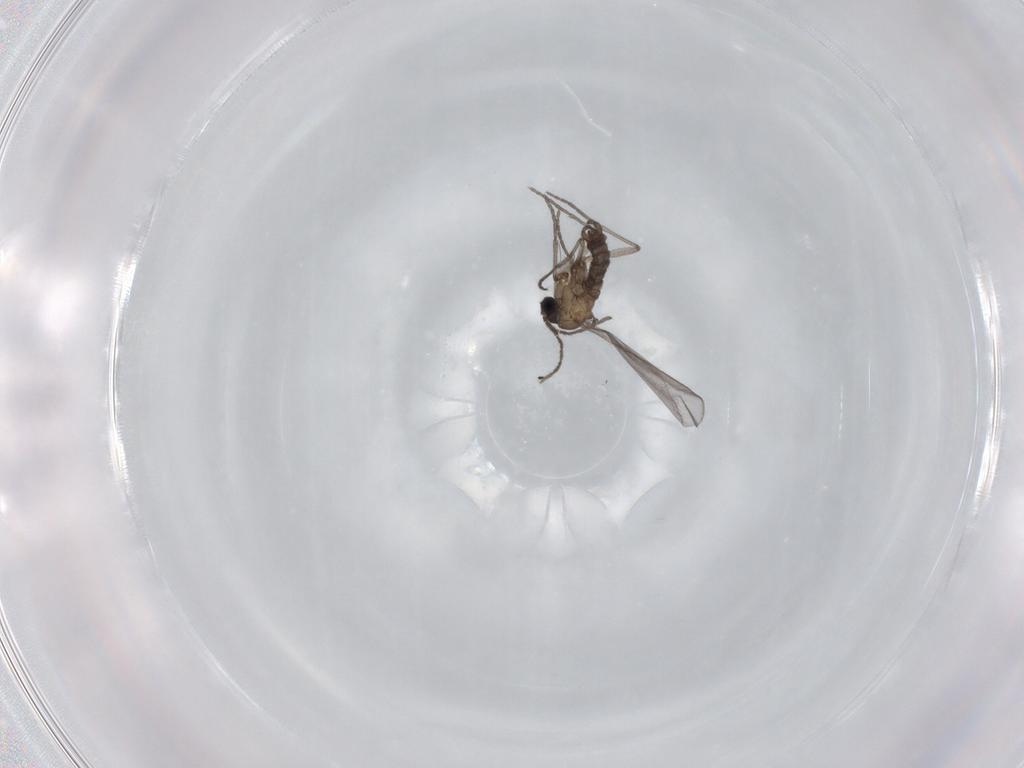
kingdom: Animalia
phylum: Arthropoda
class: Insecta
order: Diptera
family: Sciaridae
